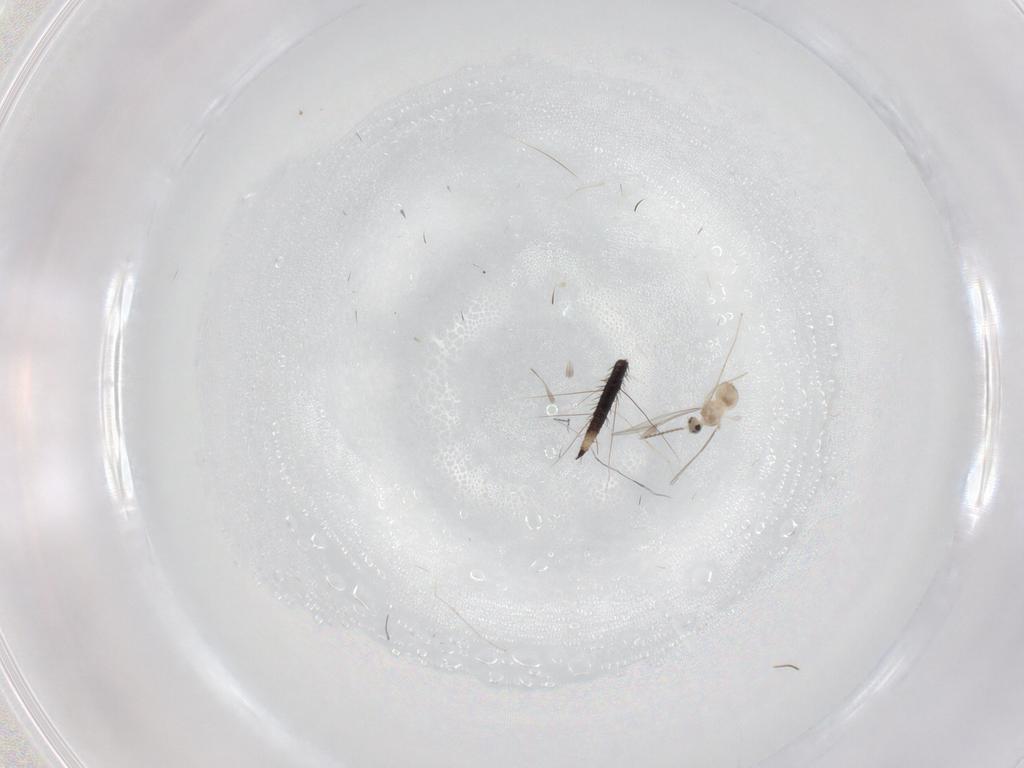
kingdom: Animalia
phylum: Arthropoda
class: Insecta
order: Diptera
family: Cecidomyiidae
